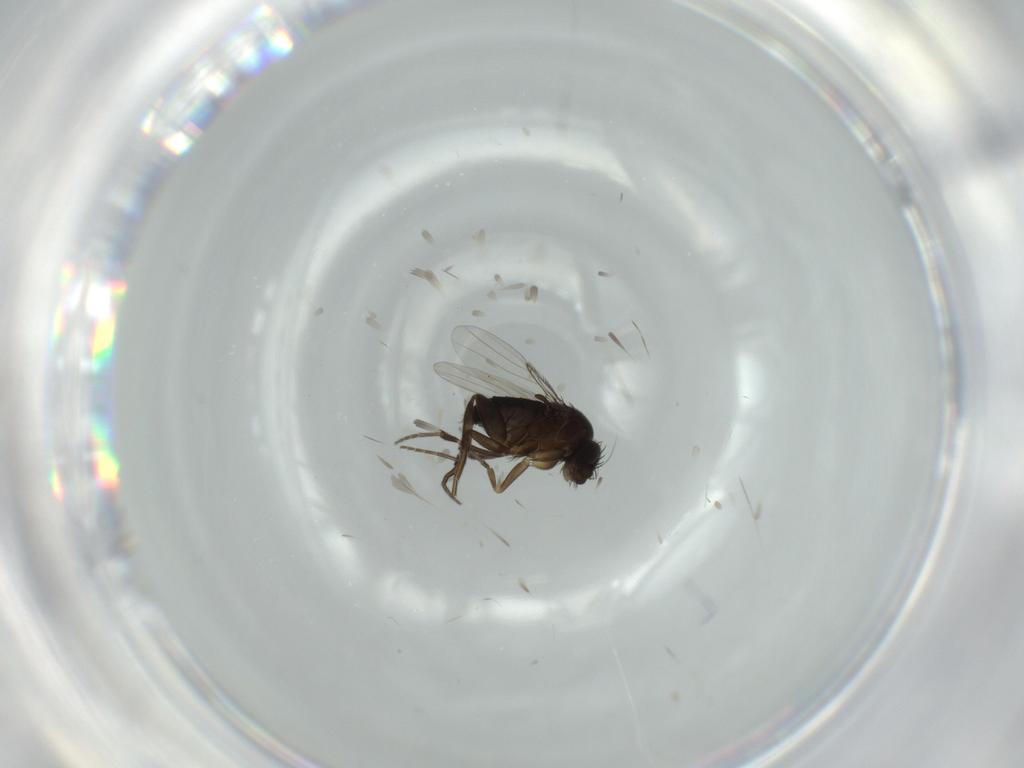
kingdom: Animalia
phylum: Arthropoda
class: Insecta
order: Diptera
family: Phoridae
